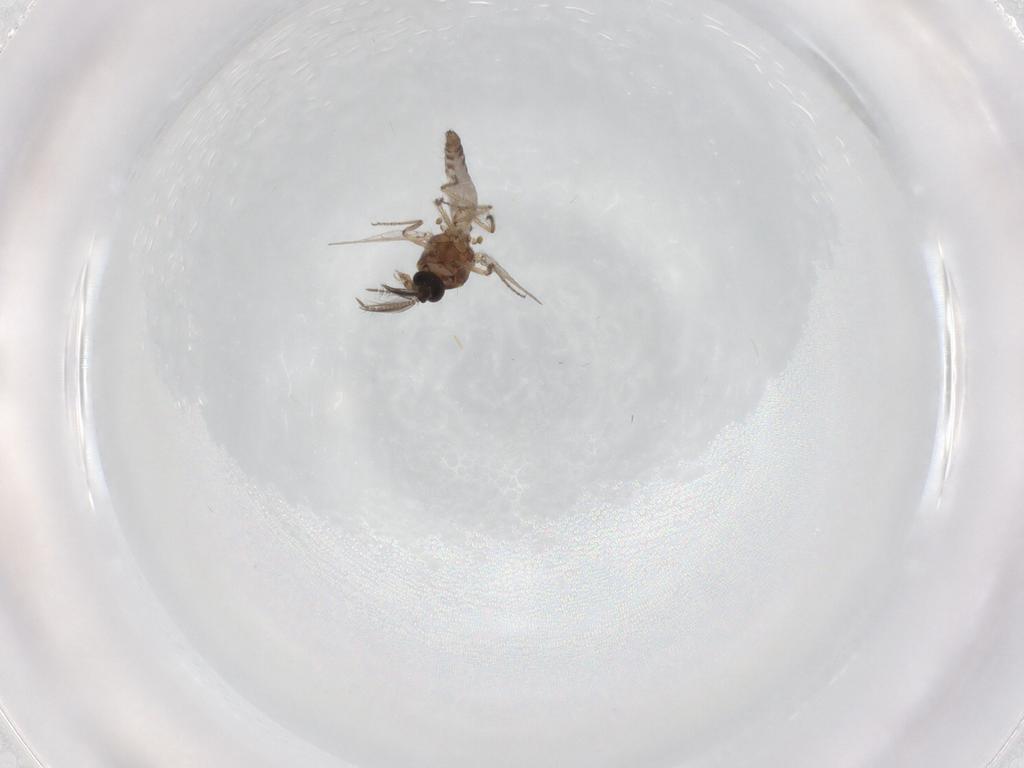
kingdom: Animalia
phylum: Arthropoda
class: Insecta
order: Diptera
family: Ceratopogonidae
